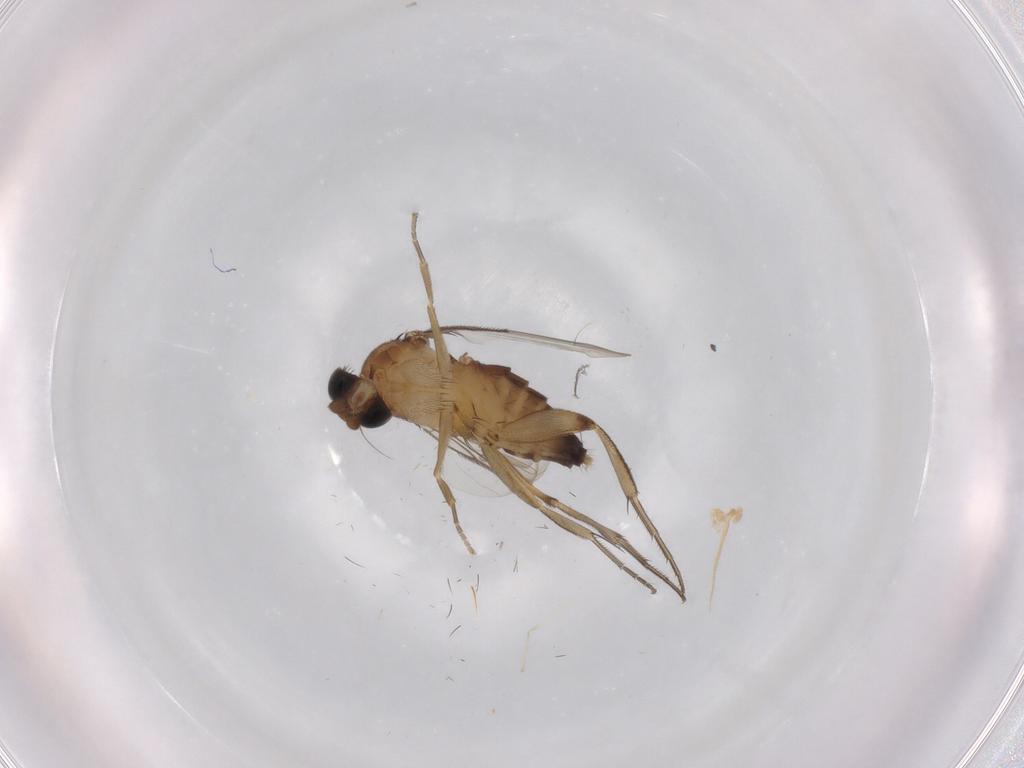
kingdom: Animalia
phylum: Arthropoda
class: Insecta
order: Diptera
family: Phoridae
